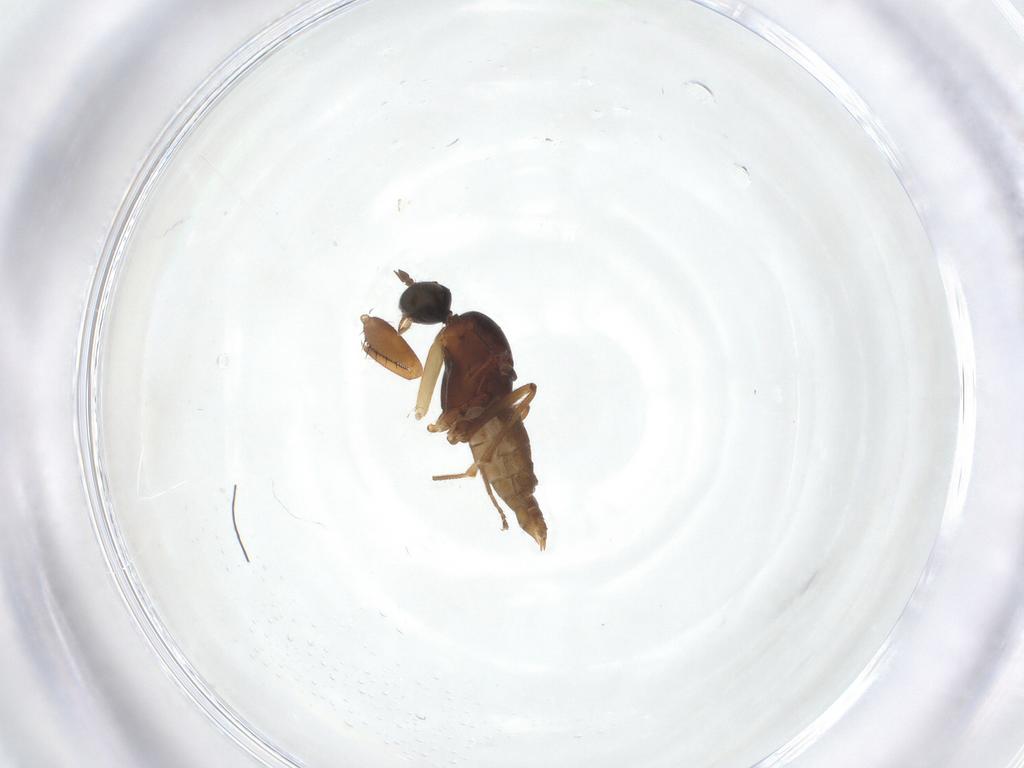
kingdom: Animalia
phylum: Arthropoda
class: Insecta
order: Diptera
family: Empididae
